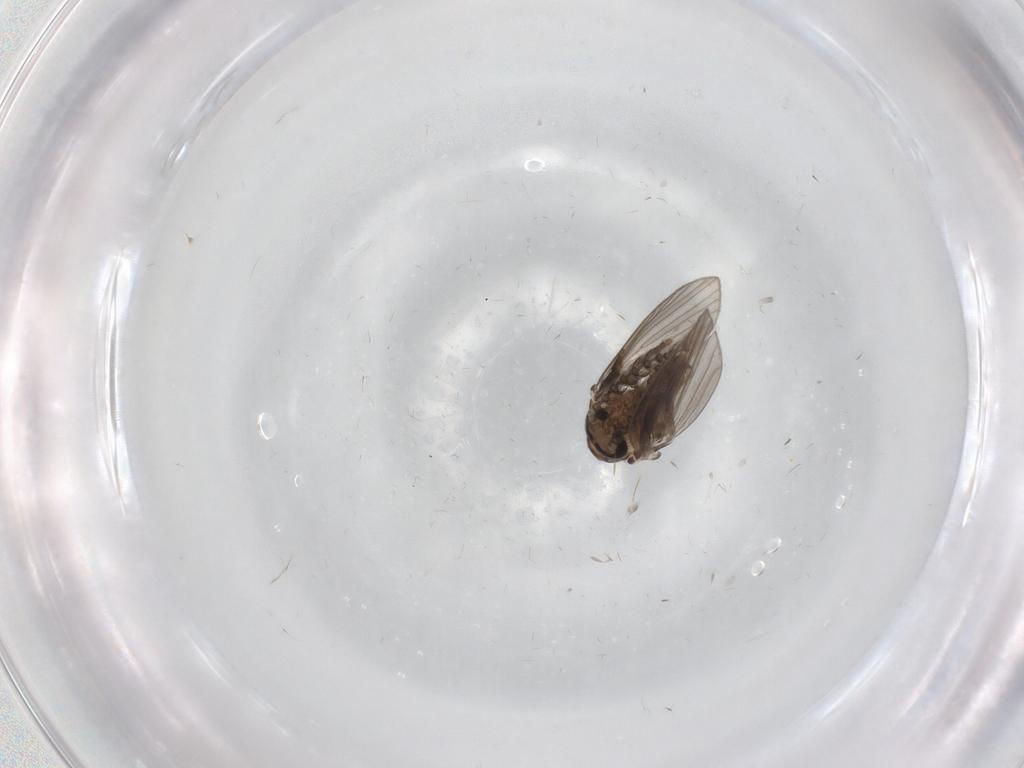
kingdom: Animalia
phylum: Arthropoda
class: Insecta
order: Diptera
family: Psychodidae
